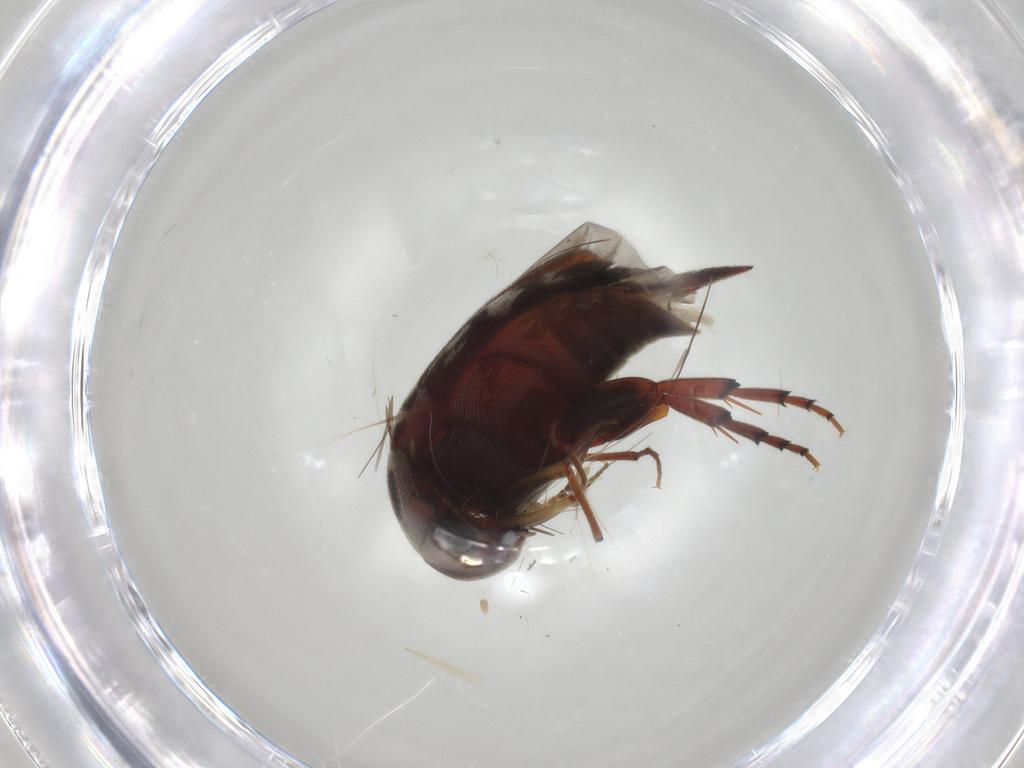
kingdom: Animalia
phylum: Arthropoda
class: Insecta
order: Coleoptera
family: Mordellidae
